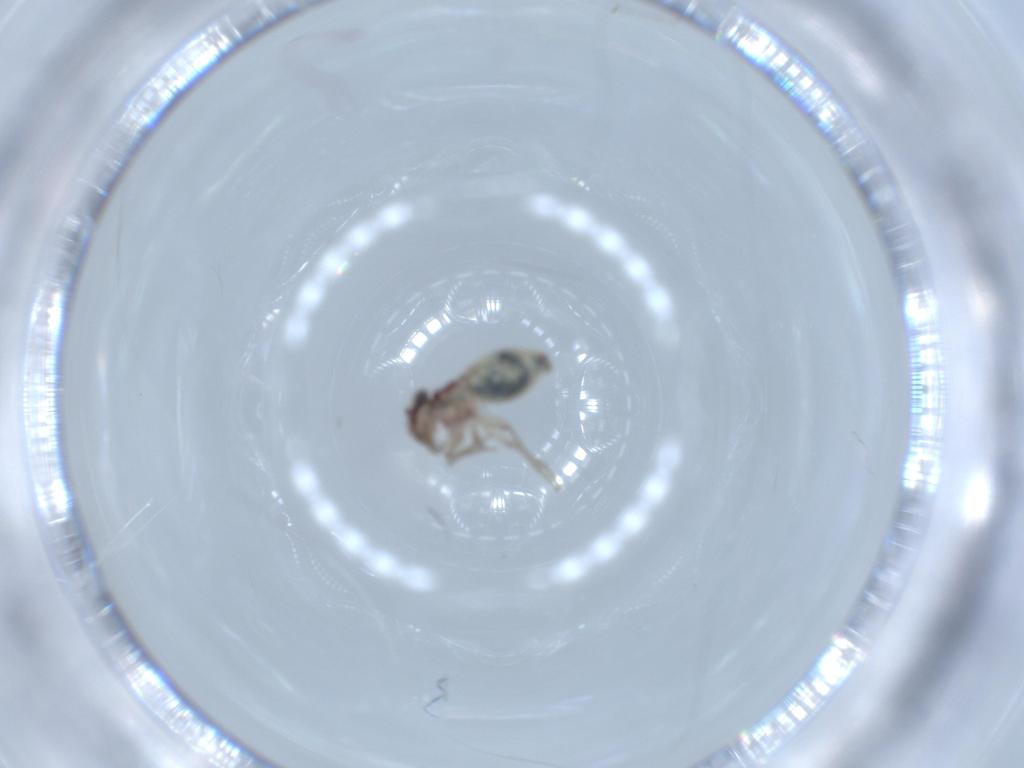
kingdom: Animalia
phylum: Arthropoda
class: Insecta
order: Psocodea
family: Lepidopsocidae
